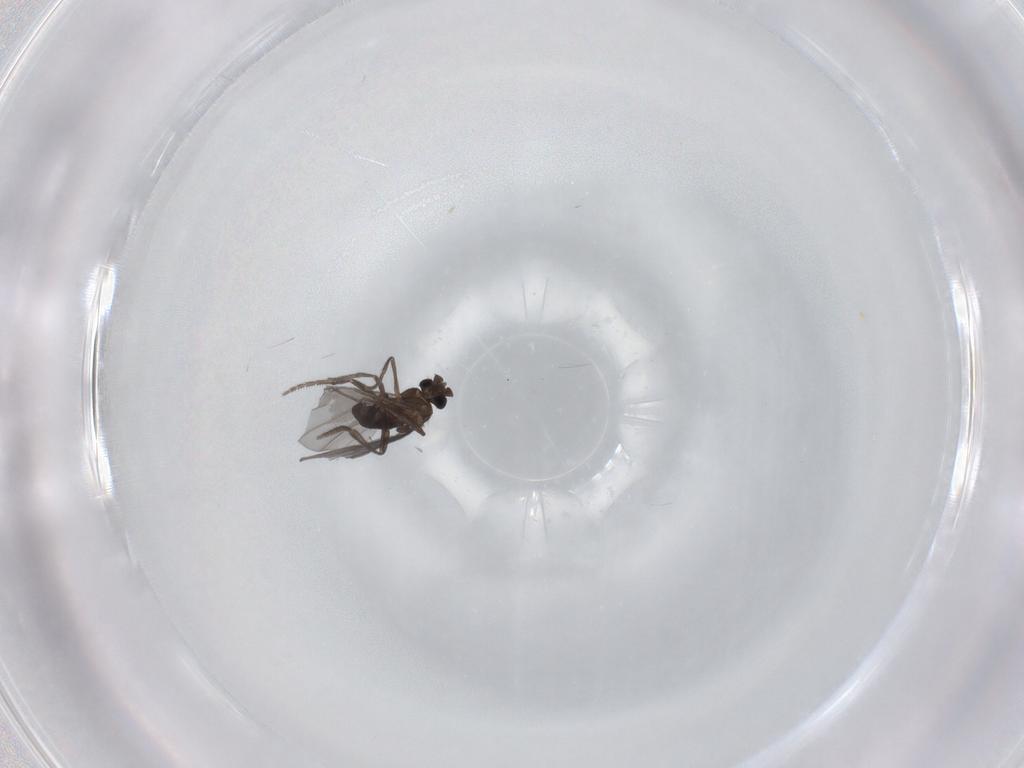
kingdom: Animalia
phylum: Arthropoda
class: Insecta
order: Diptera
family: Phoridae
